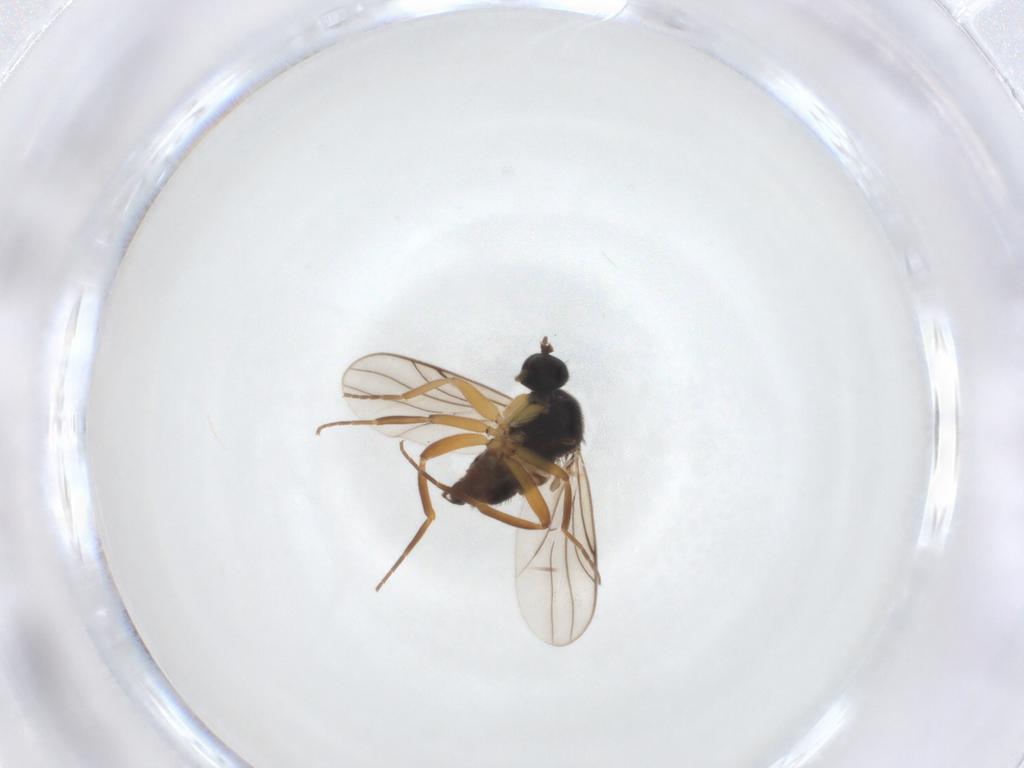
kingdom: Animalia
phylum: Arthropoda
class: Insecta
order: Diptera
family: Hybotidae
